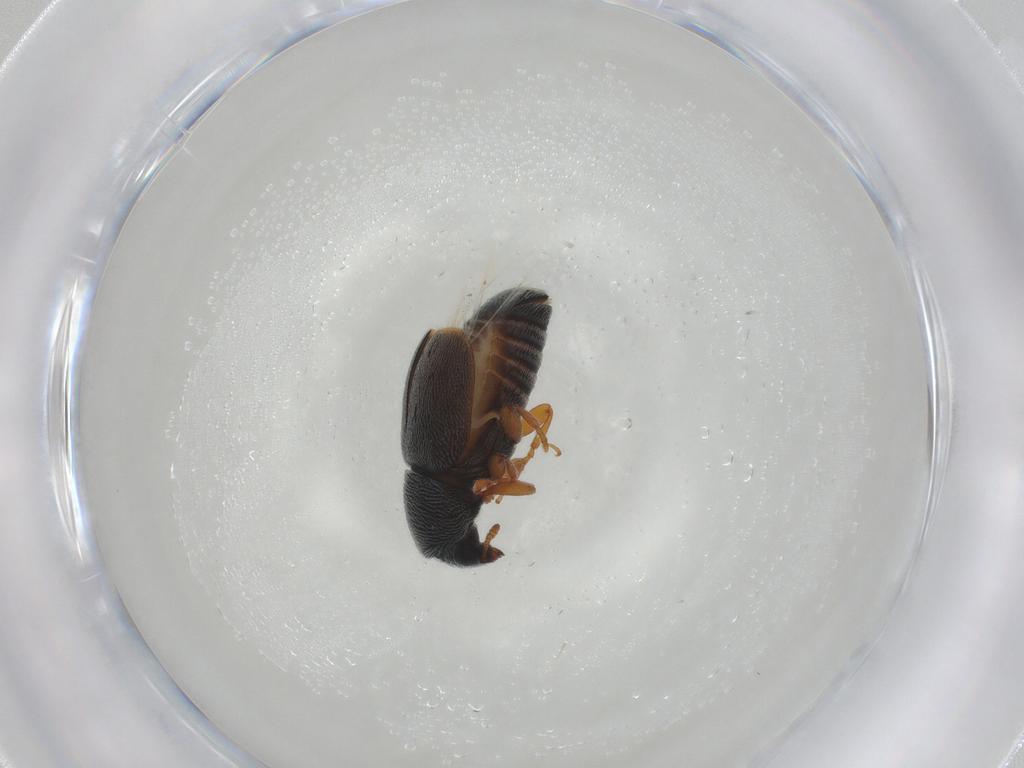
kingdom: Animalia
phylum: Arthropoda
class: Insecta
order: Coleoptera
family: Anthribidae
